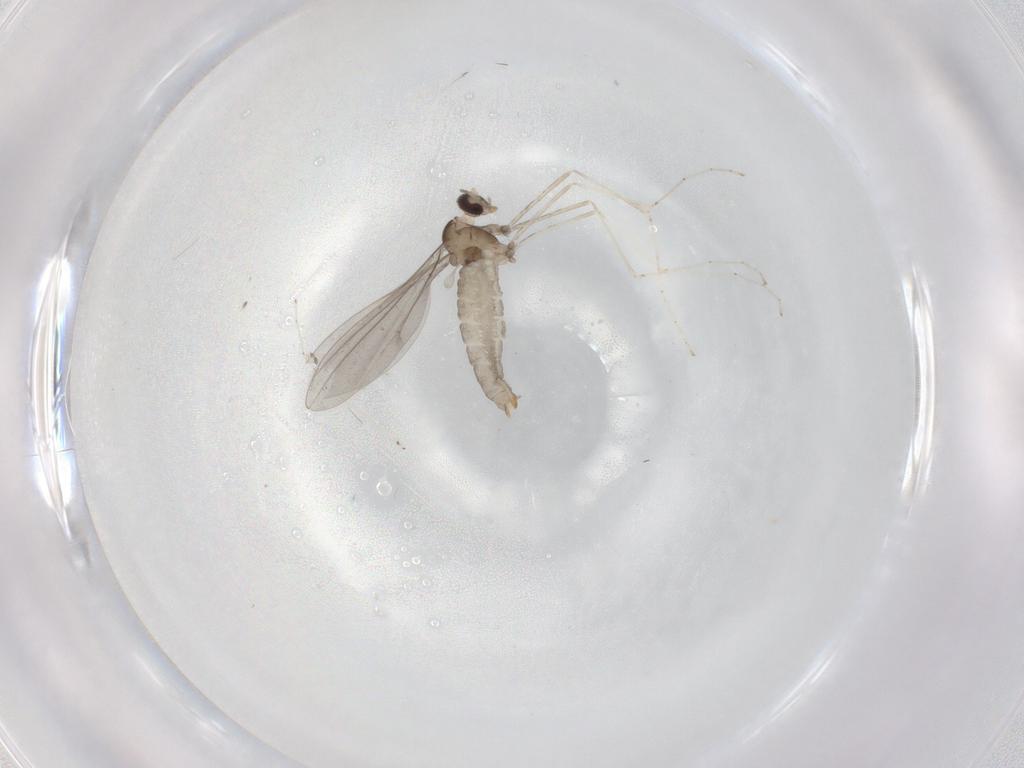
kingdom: Animalia
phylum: Arthropoda
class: Insecta
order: Diptera
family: Cecidomyiidae
